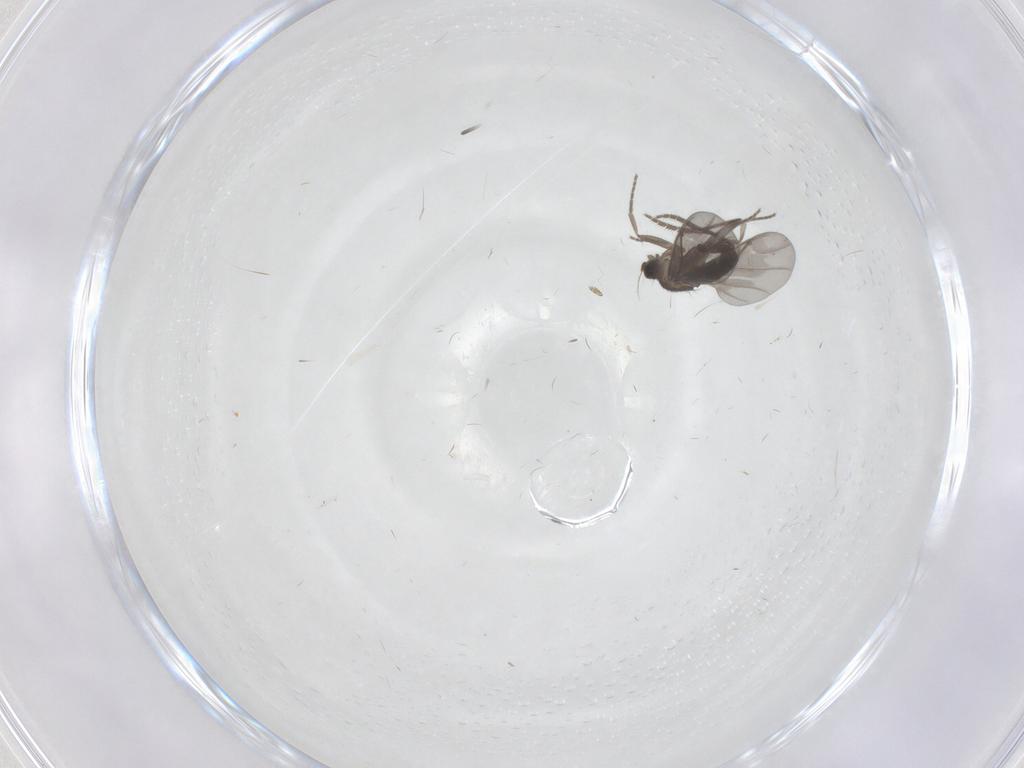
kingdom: Animalia
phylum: Arthropoda
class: Insecta
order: Diptera
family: Phoridae
